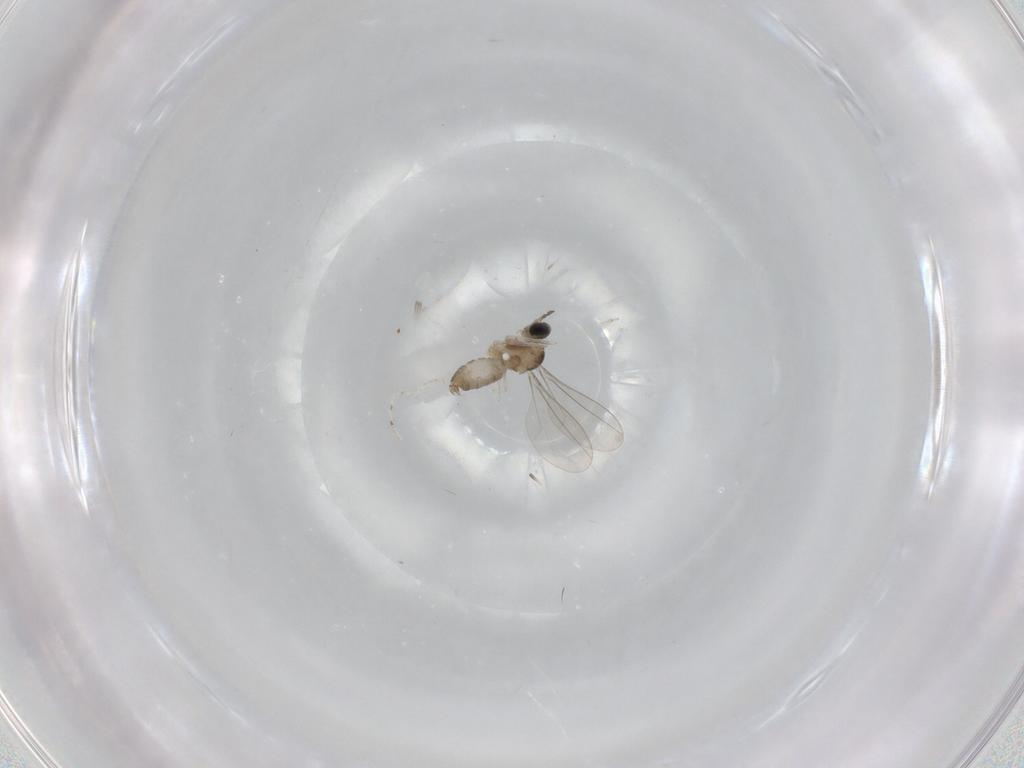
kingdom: Animalia
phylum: Arthropoda
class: Insecta
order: Diptera
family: Cecidomyiidae
